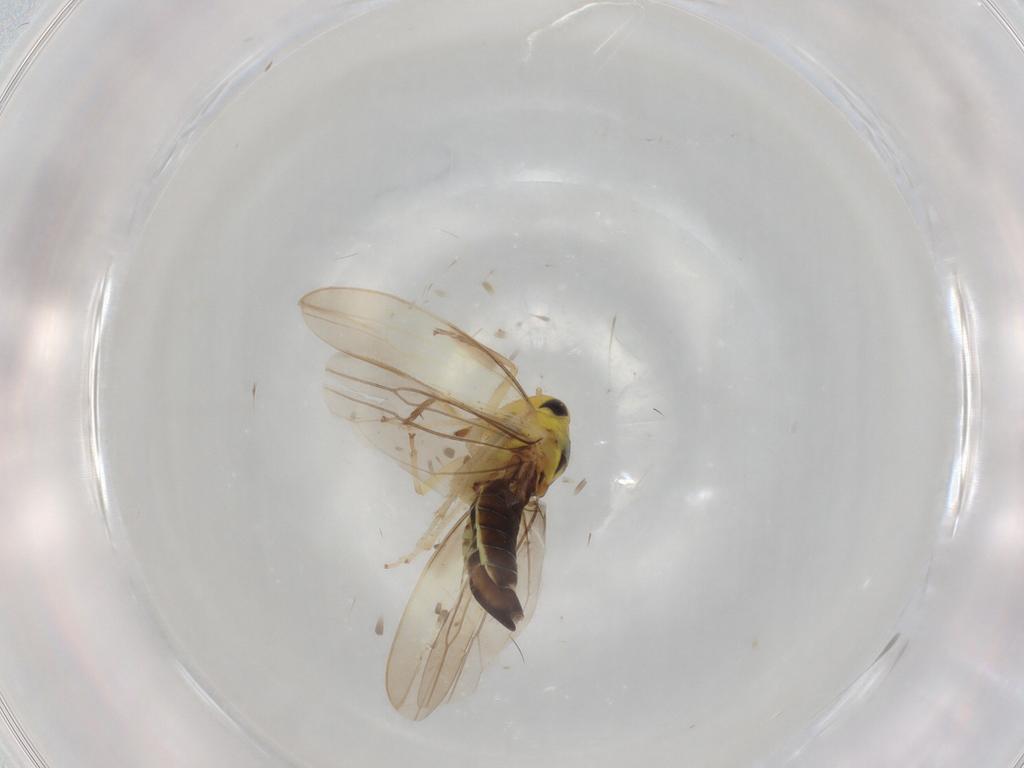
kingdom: Animalia
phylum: Arthropoda
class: Insecta
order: Hemiptera
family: Cicadellidae
